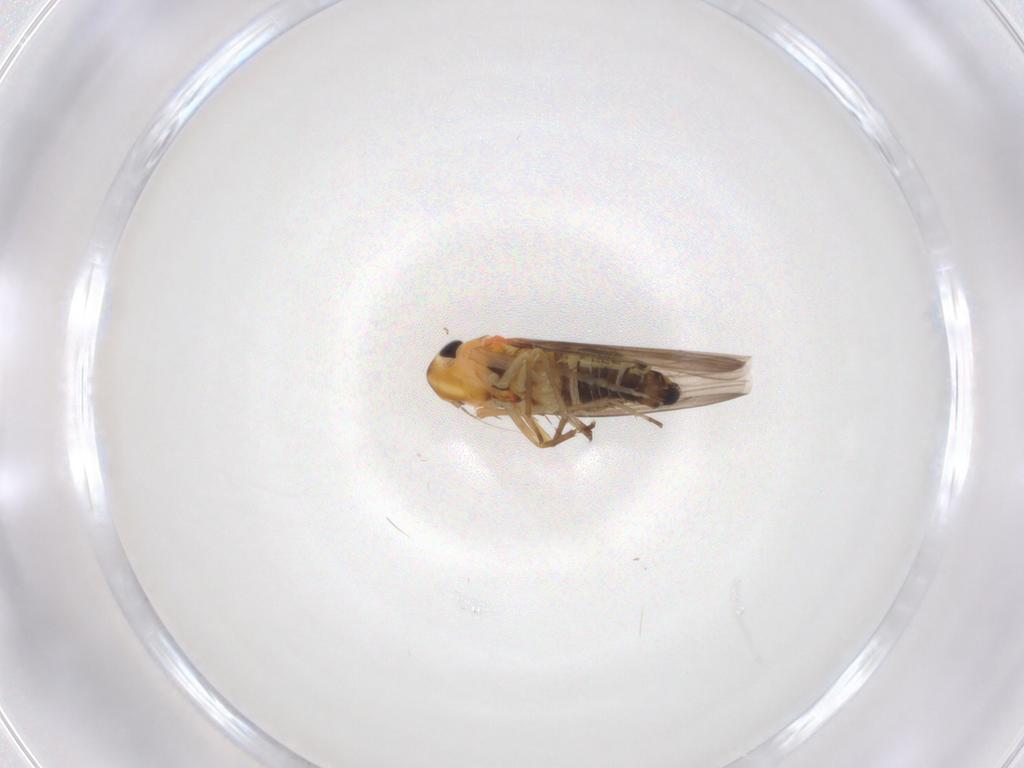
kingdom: Animalia
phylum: Arthropoda
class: Insecta
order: Hemiptera
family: Cicadellidae
